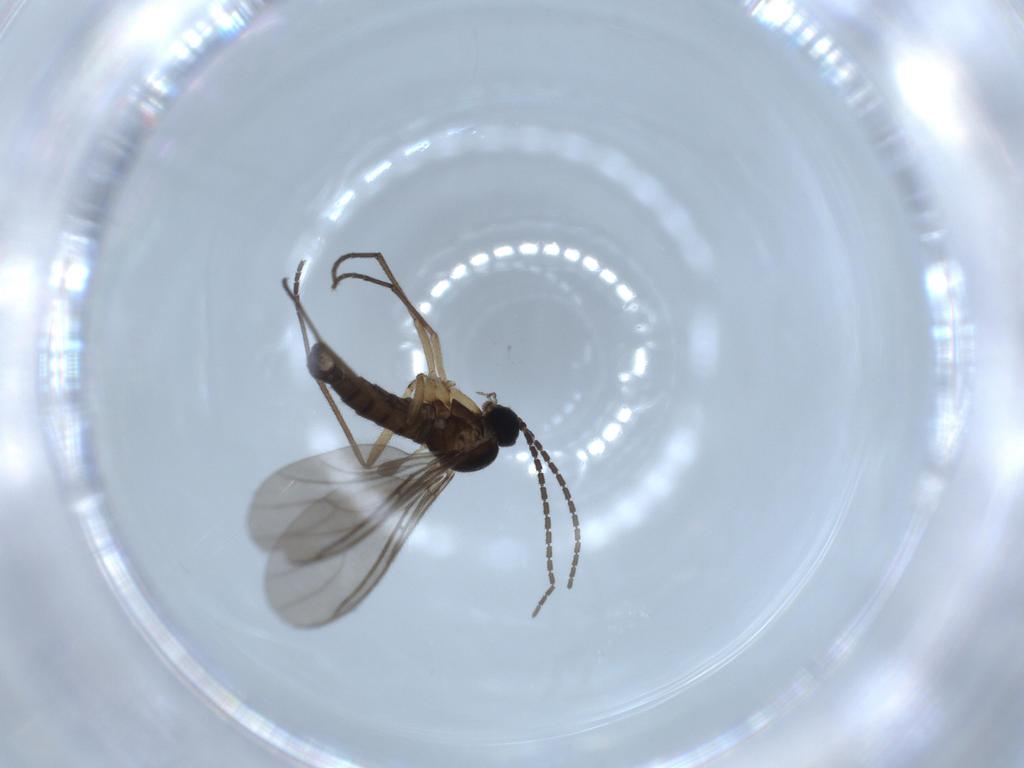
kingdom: Animalia
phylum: Arthropoda
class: Insecta
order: Diptera
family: Sciaridae
